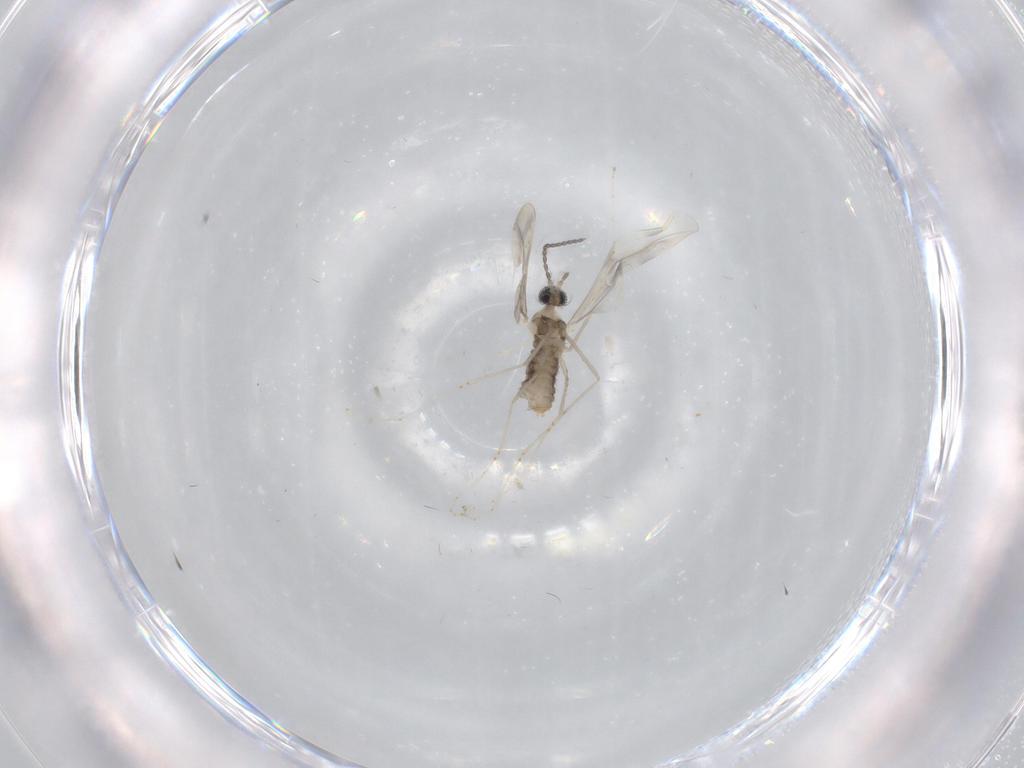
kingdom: Animalia
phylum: Arthropoda
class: Insecta
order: Diptera
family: Cecidomyiidae
